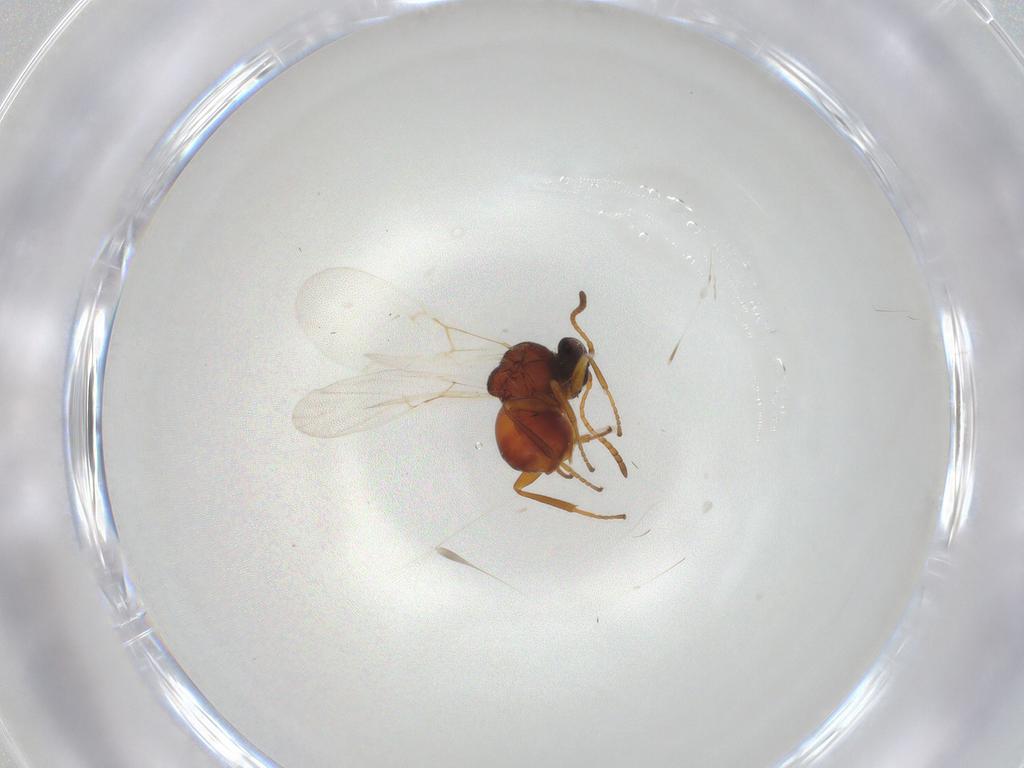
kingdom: Animalia
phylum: Arthropoda
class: Insecta
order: Hymenoptera
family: Cynipidae
